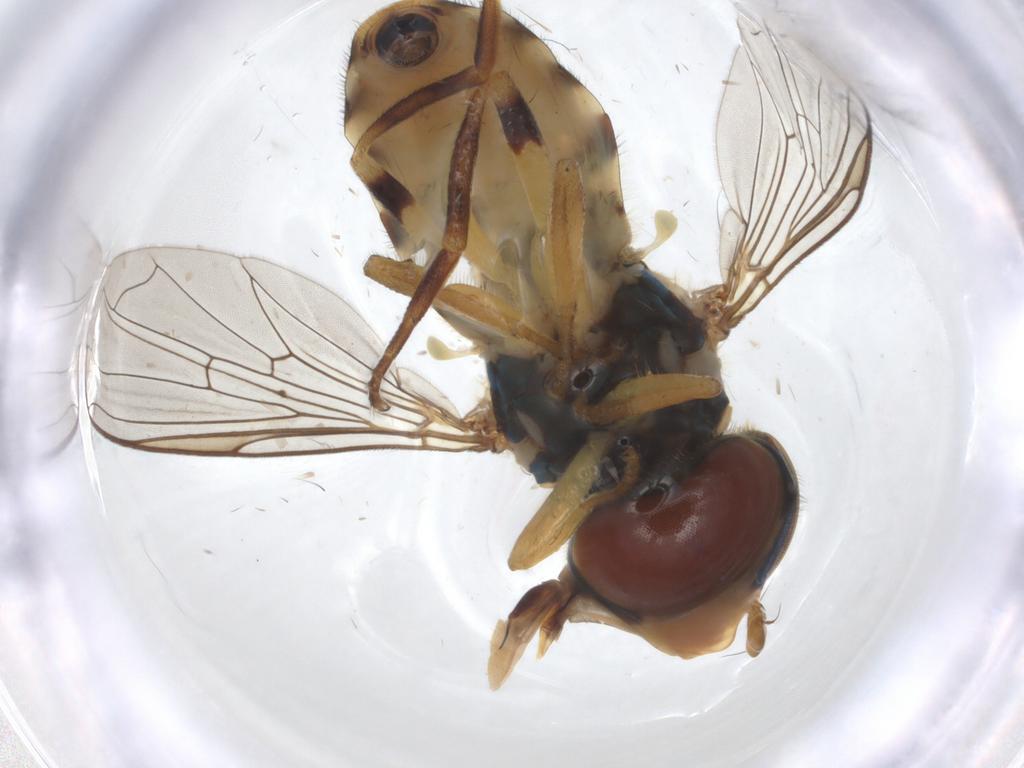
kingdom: Animalia
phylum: Arthropoda
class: Insecta
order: Diptera
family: Syrphidae
